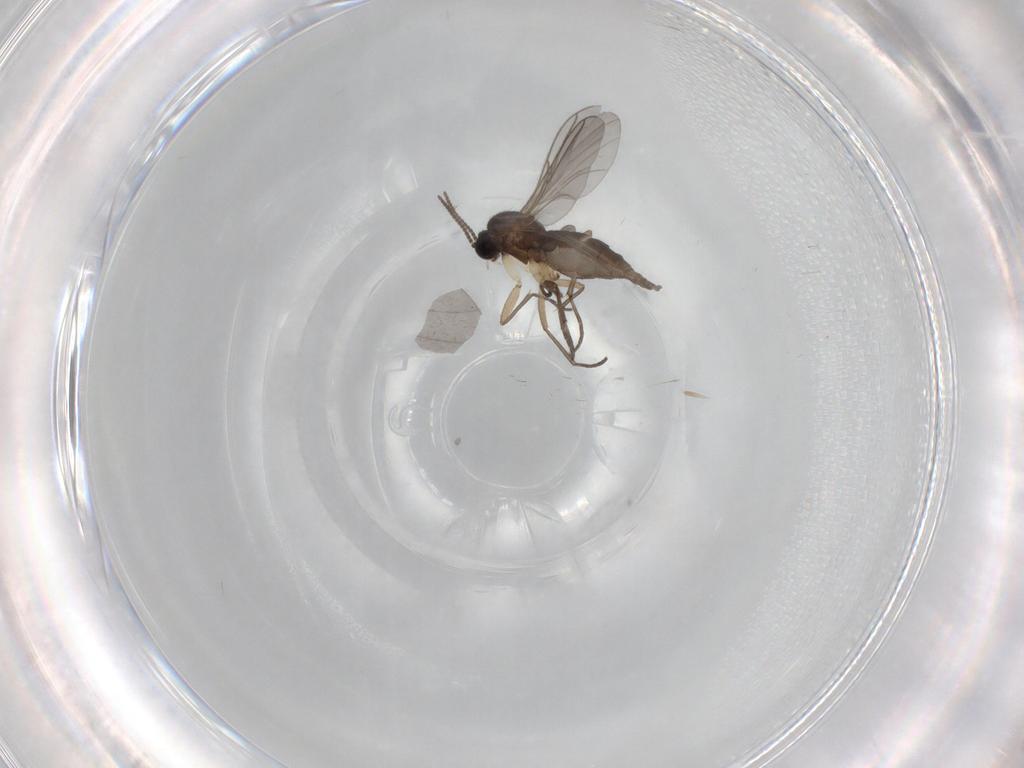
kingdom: Animalia
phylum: Arthropoda
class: Insecta
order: Diptera
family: Sciaridae
